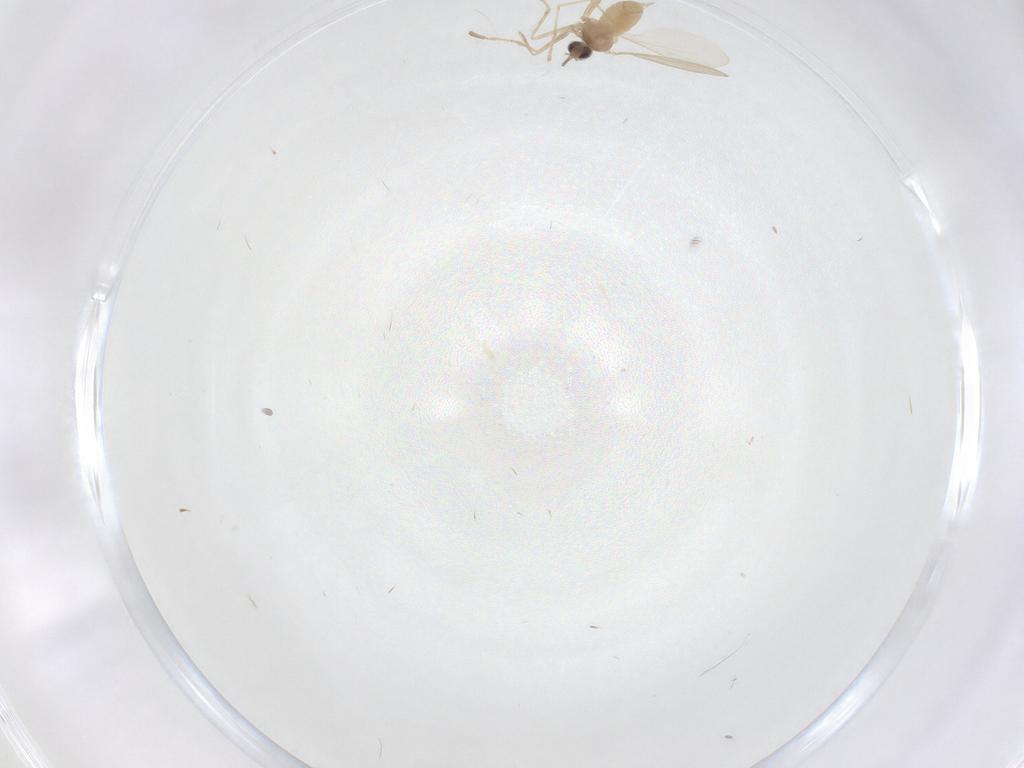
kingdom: Animalia
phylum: Arthropoda
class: Insecta
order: Diptera
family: Cecidomyiidae
